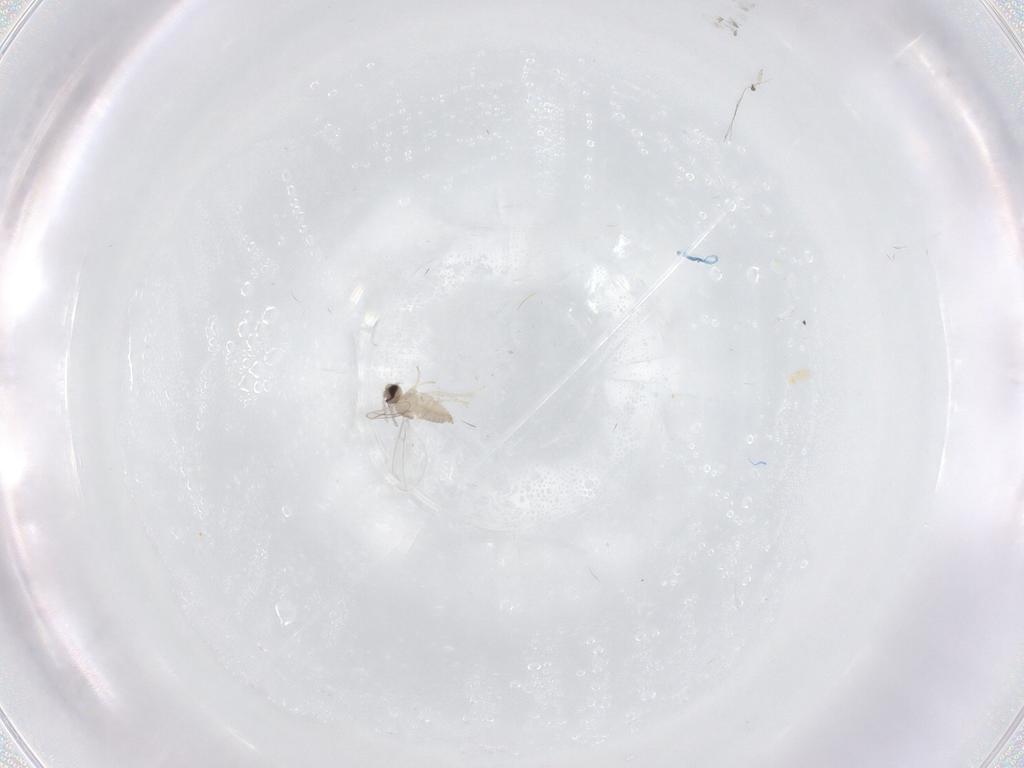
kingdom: Animalia
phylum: Arthropoda
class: Insecta
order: Diptera
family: Cecidomyiidae
